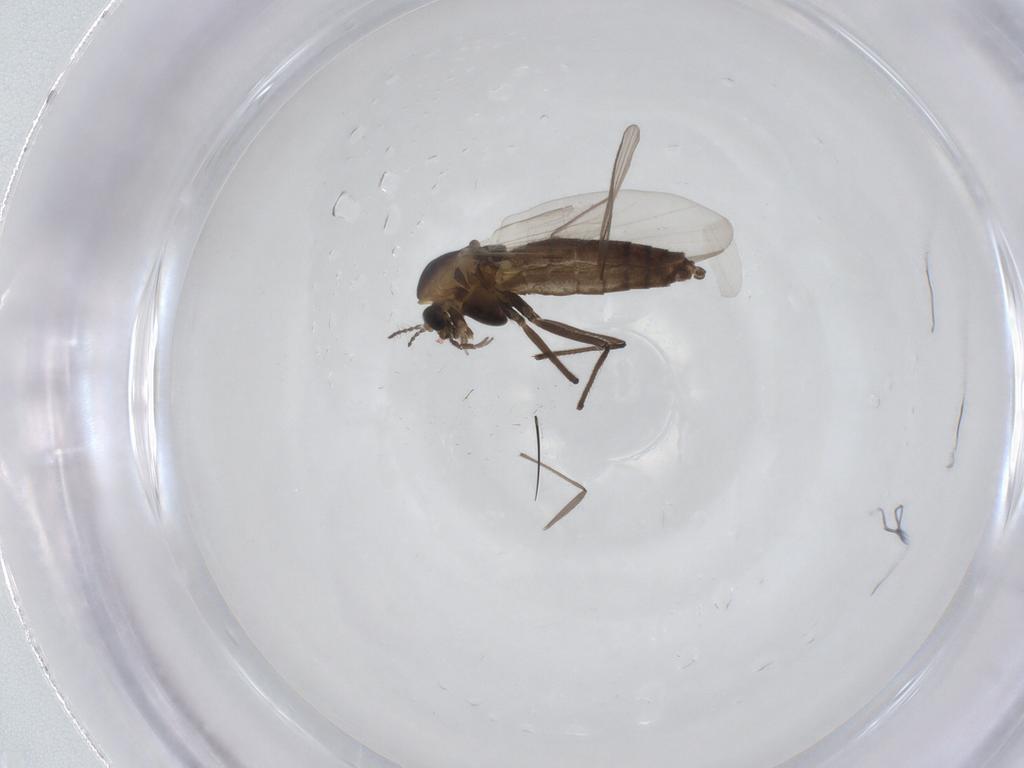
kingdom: Animalia
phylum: Arthropoda
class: Insecta
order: Diptera
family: Chironomidae
